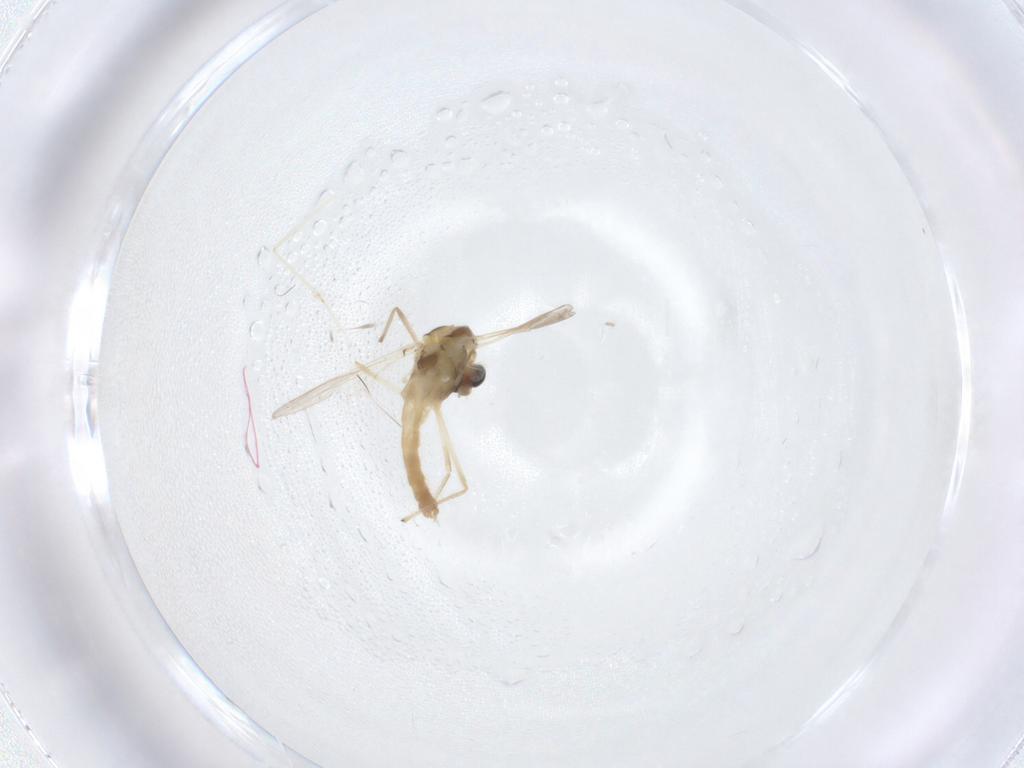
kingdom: Animalia
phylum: Arthropoda
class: Insecta
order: Diptera
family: Chironomidae
